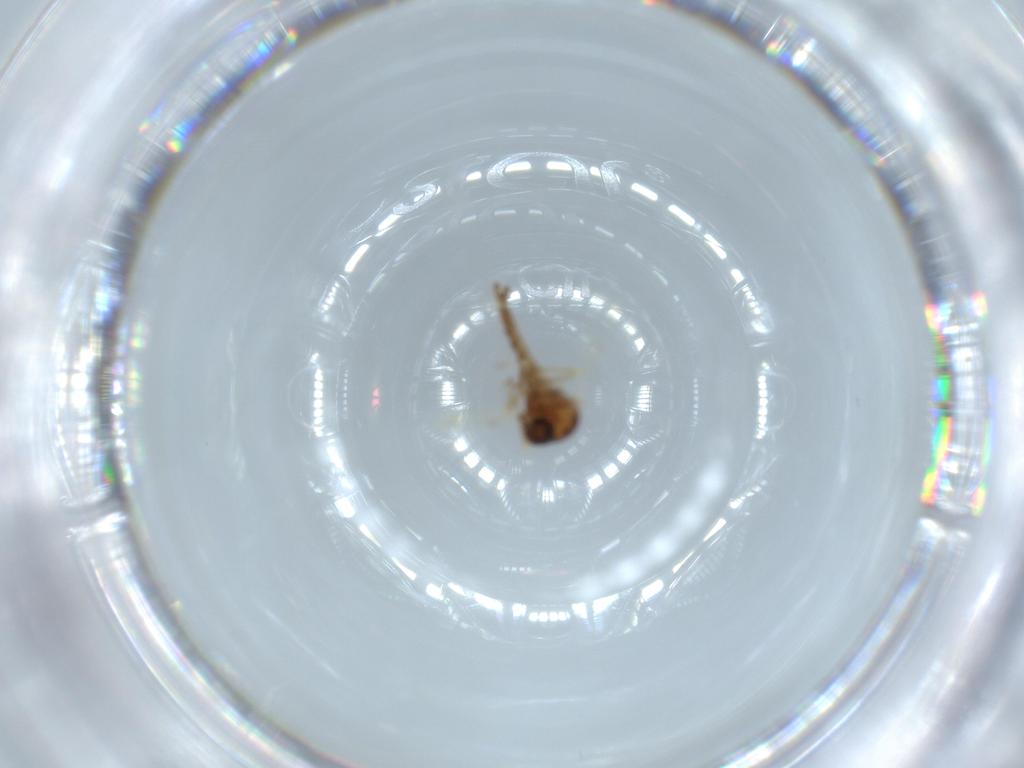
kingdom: Animalia
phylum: Arthropoda
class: Insecta
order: Diptera
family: Ceratopogonidae
